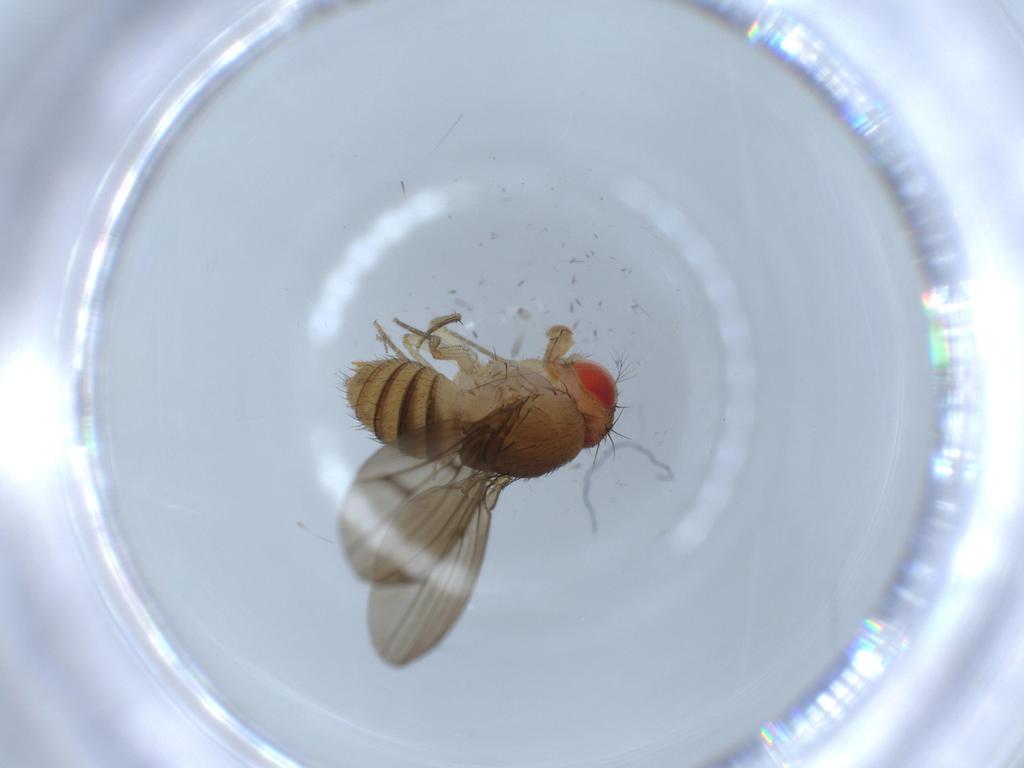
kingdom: Animalia
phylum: Arthropoda
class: Insecta
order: Diptera
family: Drosophilidae
